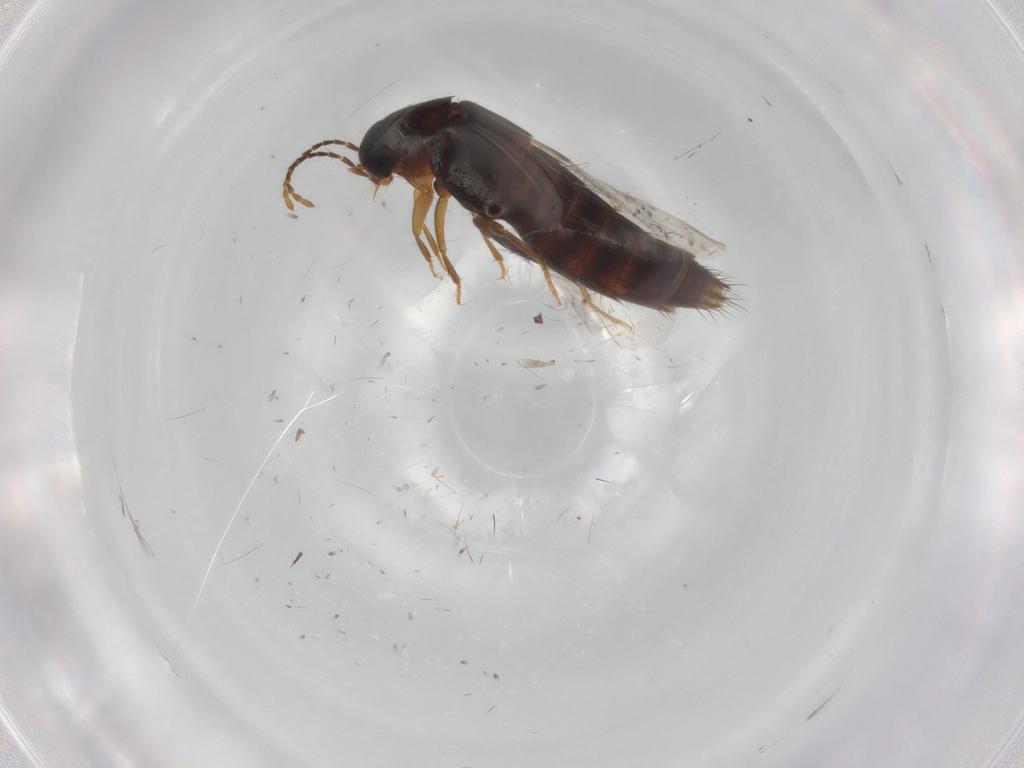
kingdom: Animalia
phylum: Arthropoda
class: Insecta
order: Coleoptera
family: Staphylinidae
